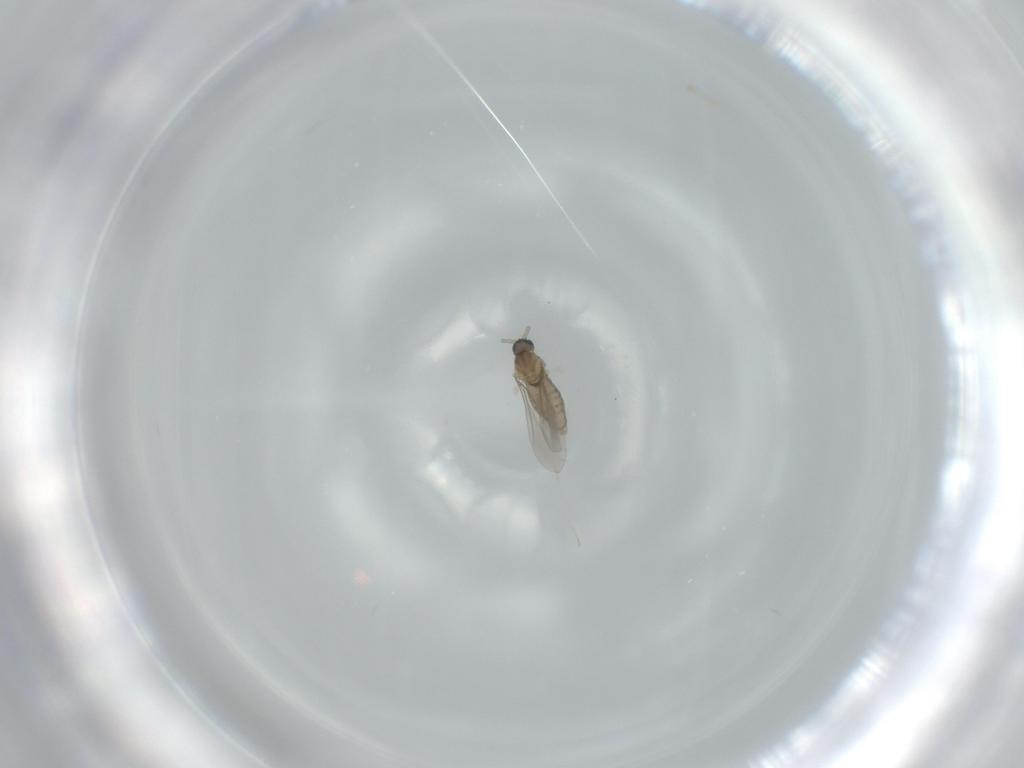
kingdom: Animalia
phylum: Arthropoda
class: Insecta
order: Diptera
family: Cecidomyiidae
